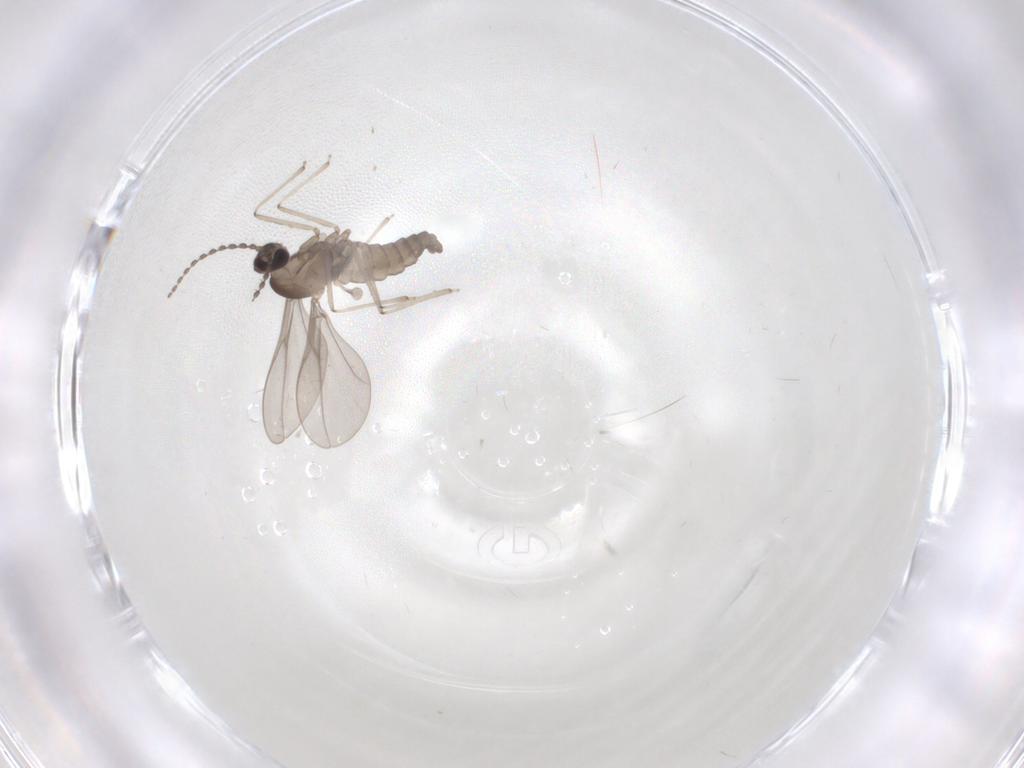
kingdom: Animalia
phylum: Arthropoda
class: Insecta
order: Diptera
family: Cecidomyiidae
